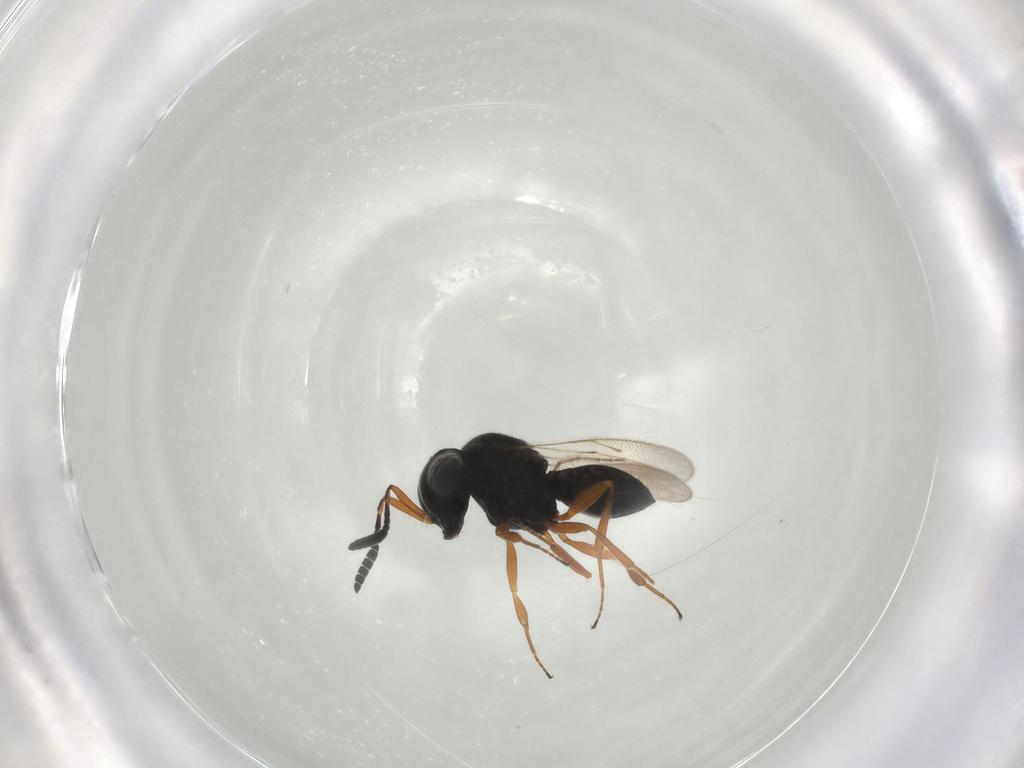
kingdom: Animalia
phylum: Arthropoda
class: Insecta
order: Hymenoptera
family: Scelionidae
